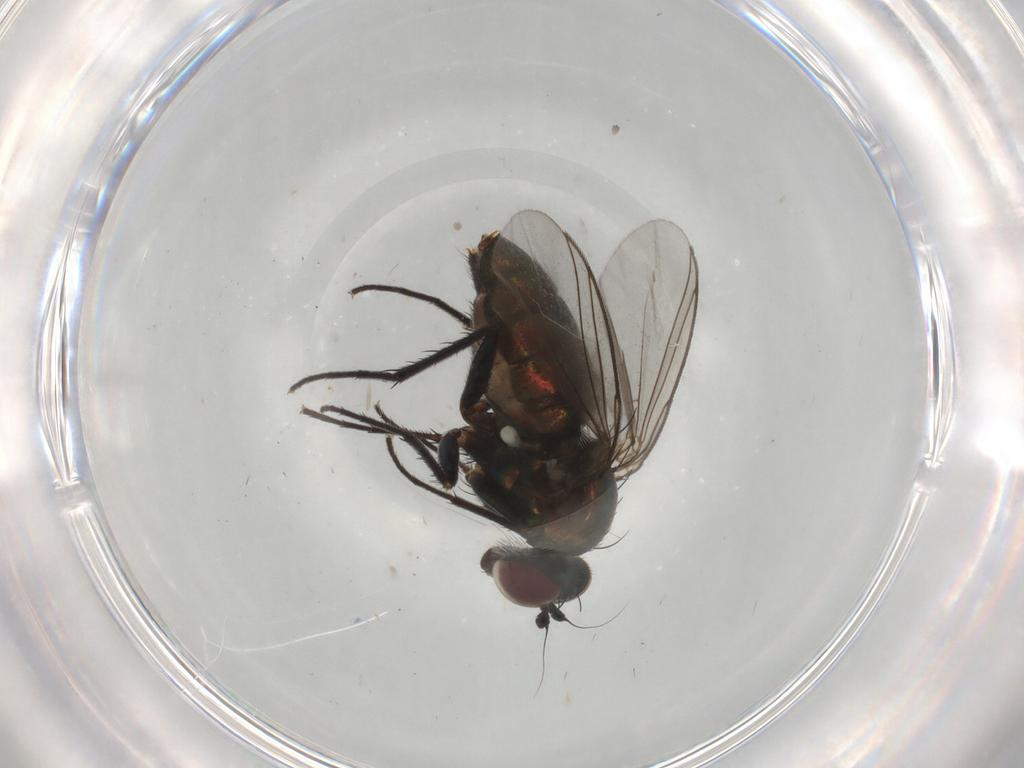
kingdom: Animalia
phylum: Arthropoda
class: Insecta
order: Diptera
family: Dolichopodidae
